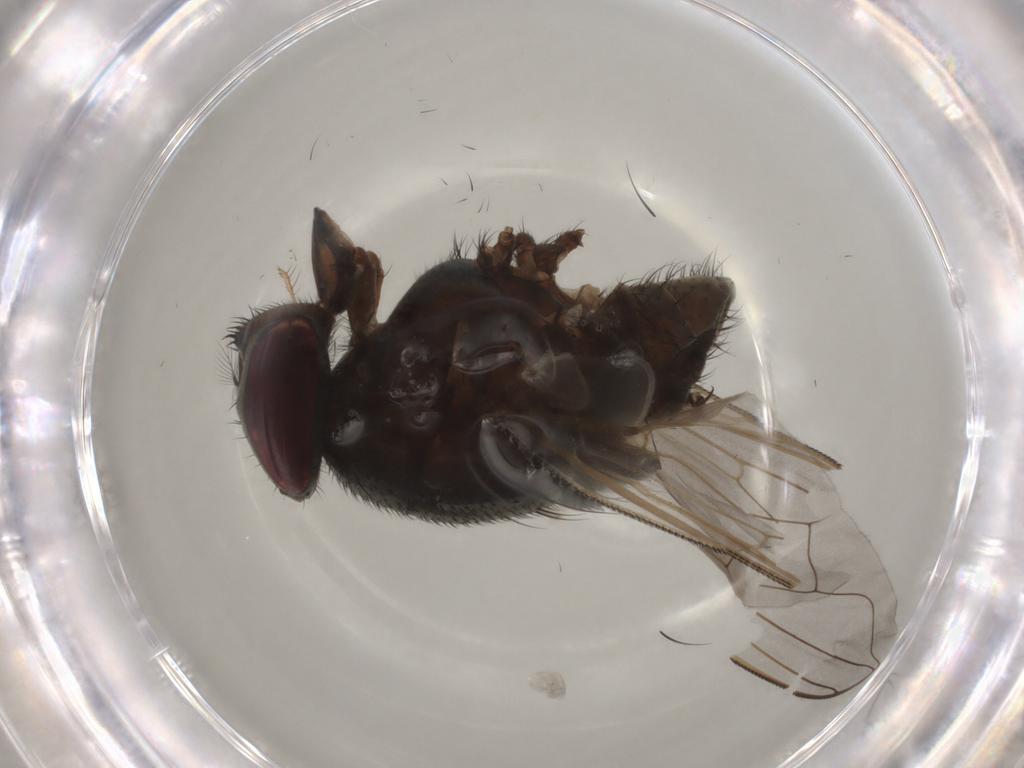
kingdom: Animalia
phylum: Arthropoda
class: Insecta
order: Diptera
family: Muscidae
